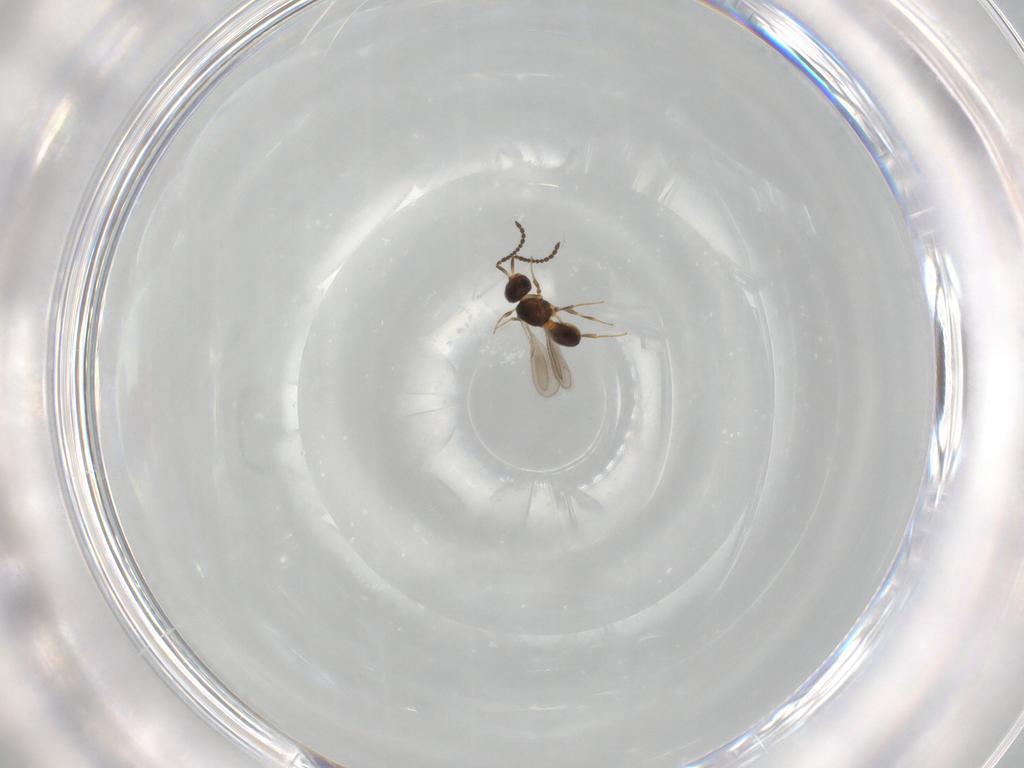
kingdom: Animalia
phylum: Arthropoda
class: Insecta
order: Hymenoptera
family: Scelionidae
